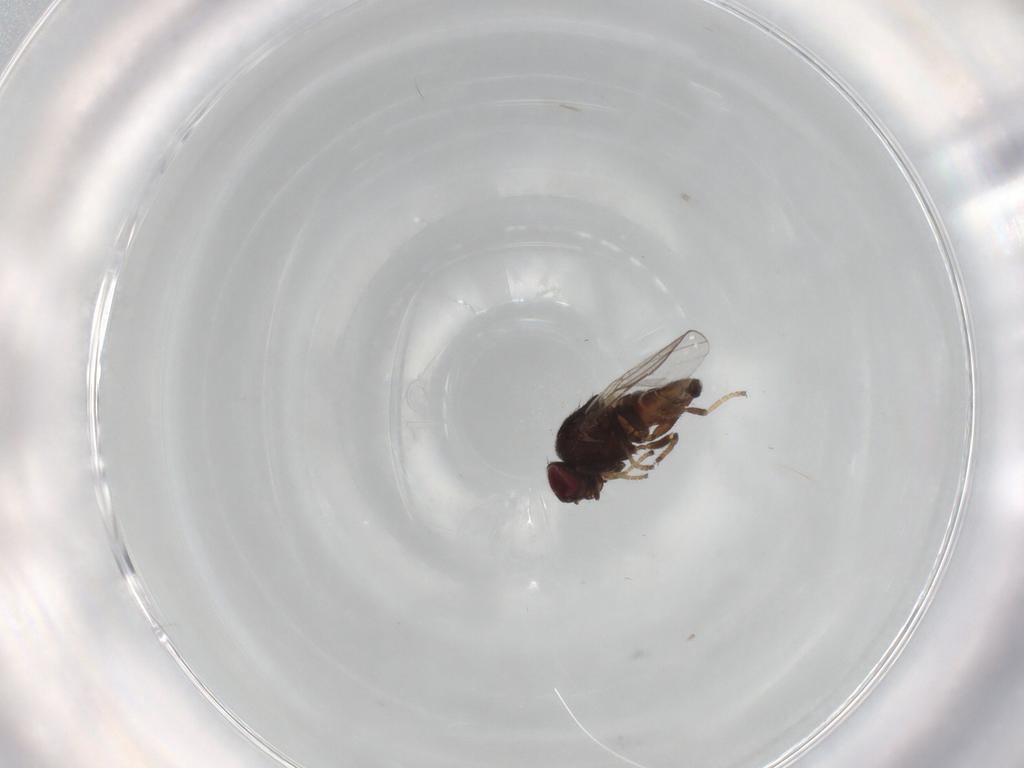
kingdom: Animalia
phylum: Arthropoda
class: Insecta
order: Diptera
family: Chloropidae
